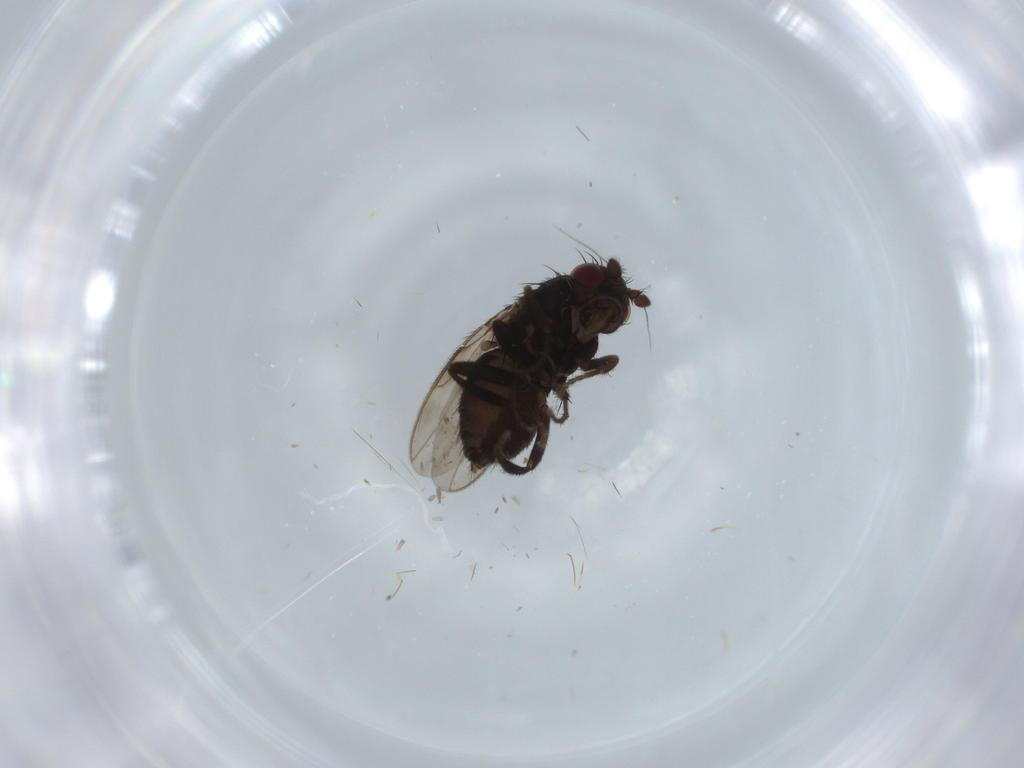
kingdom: Animalia
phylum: Arthropoda
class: Insecta
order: Diptera
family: Sphaeroceridae
